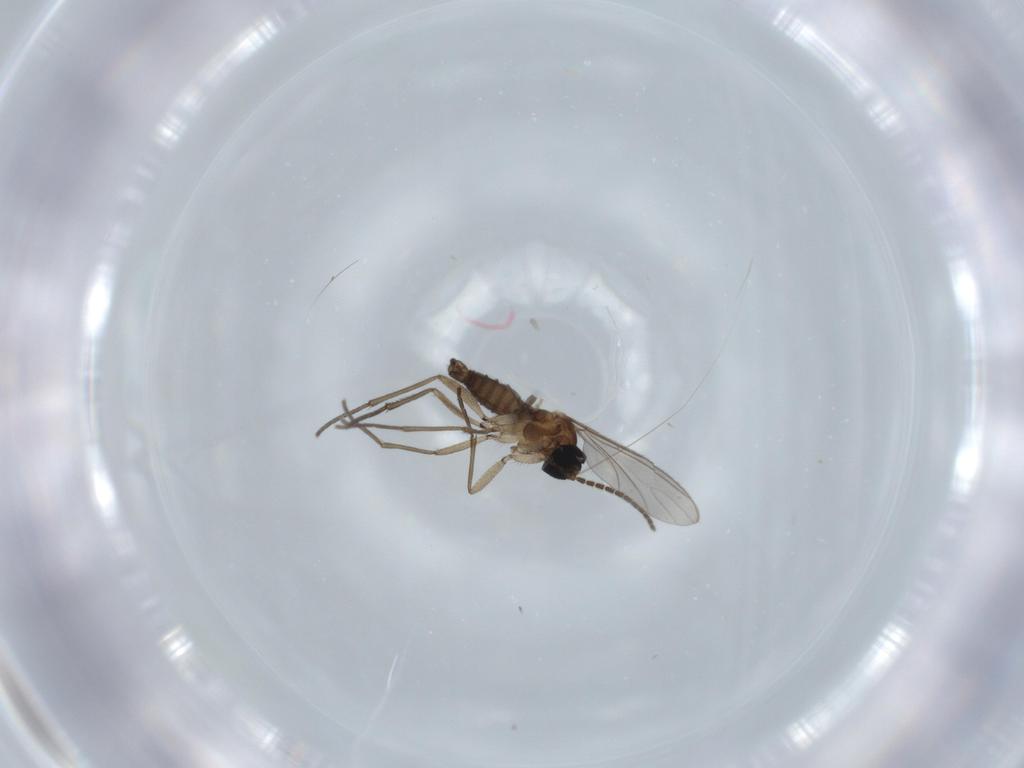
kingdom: Animalia
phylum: Arthropoda
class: Insecta
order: Diptera
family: Sciaridae
